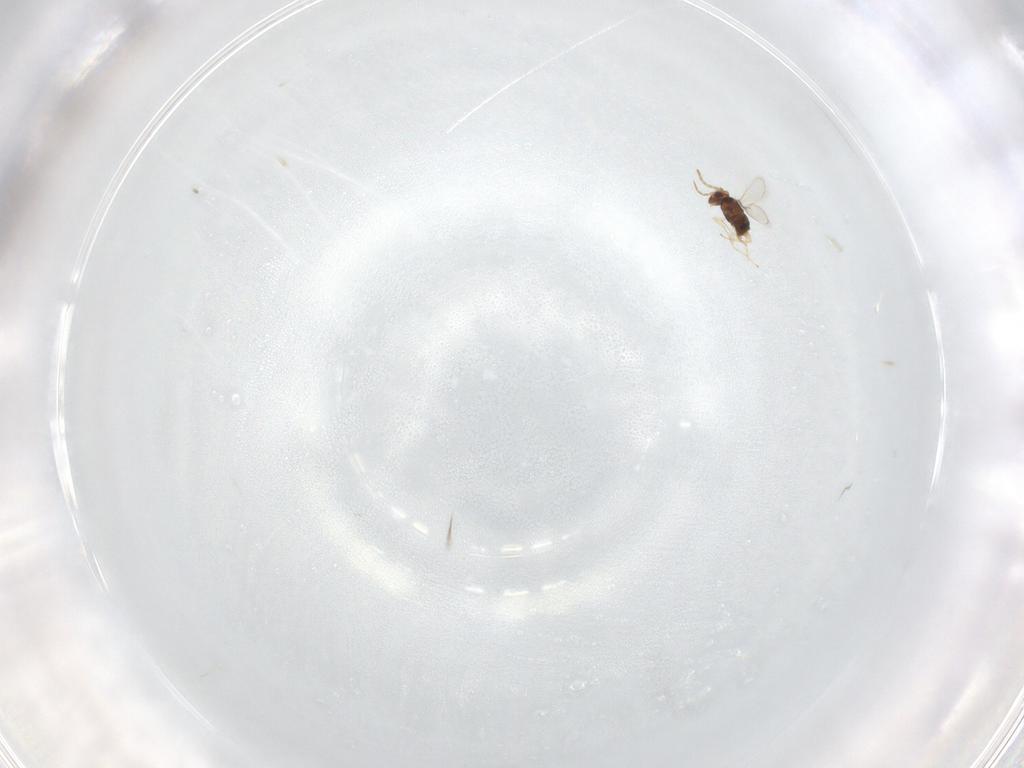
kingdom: Animalia
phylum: Arthropoda
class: Insecta
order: Hymenoptera
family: Aphelinidae
